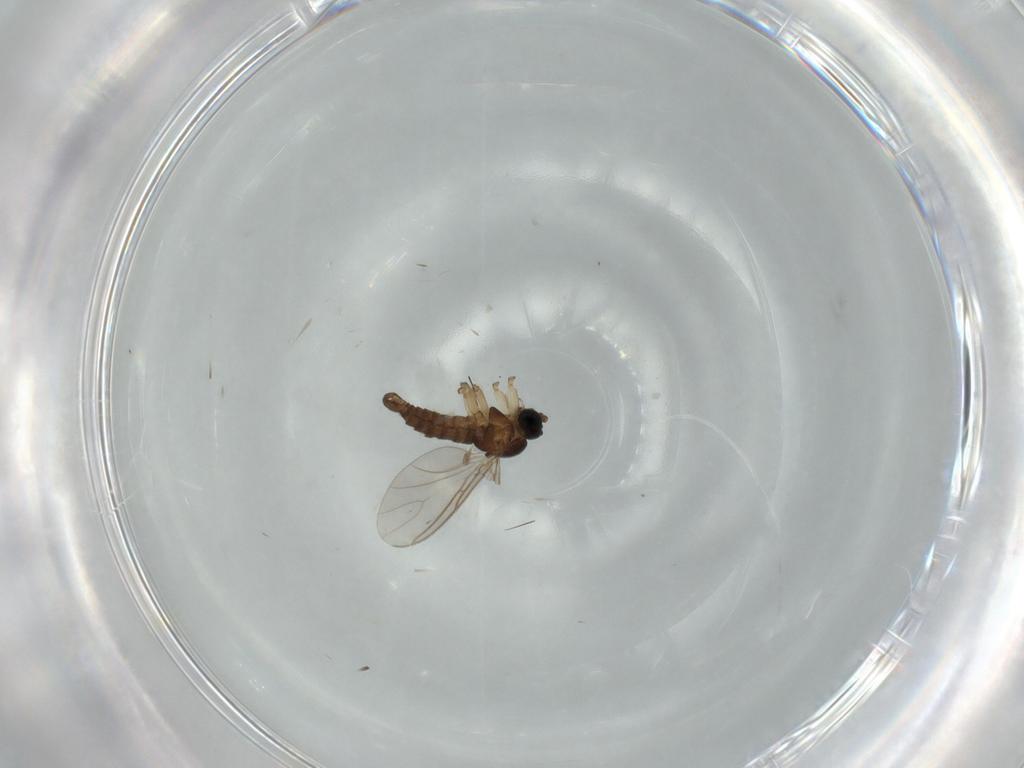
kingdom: Animalia
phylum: Arthropoda
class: Insecta
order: Diptera
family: Sciaridae
